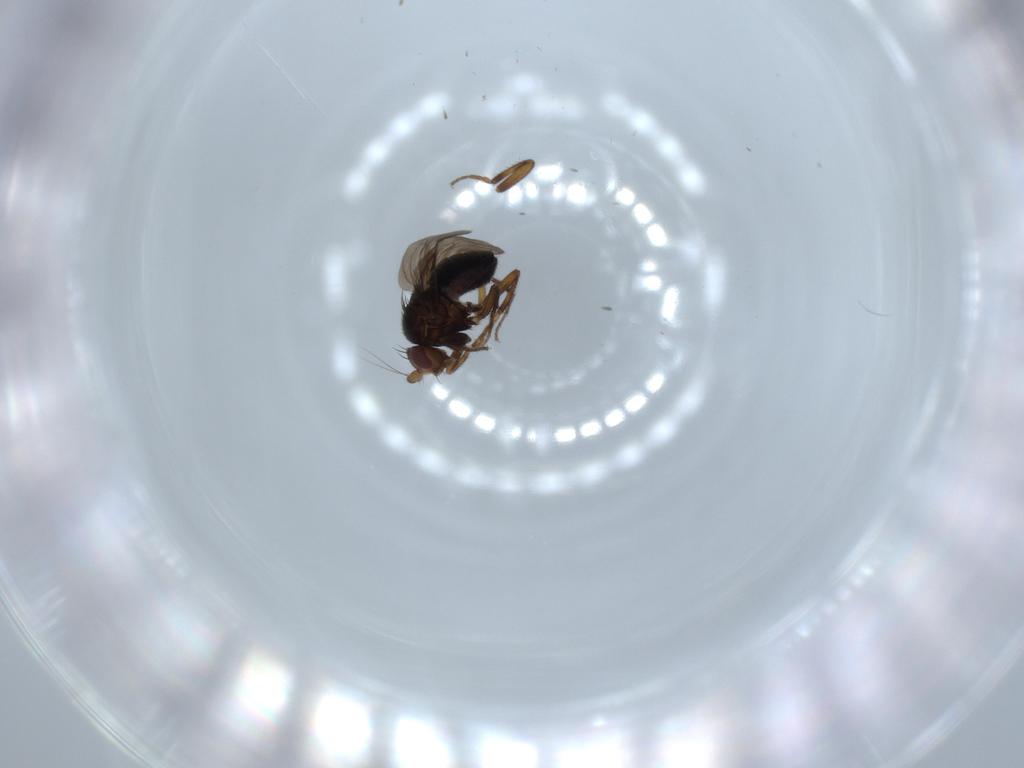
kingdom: Animalia
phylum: Arthropoda
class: Insecta
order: Diptera
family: Sphaeroceridae
